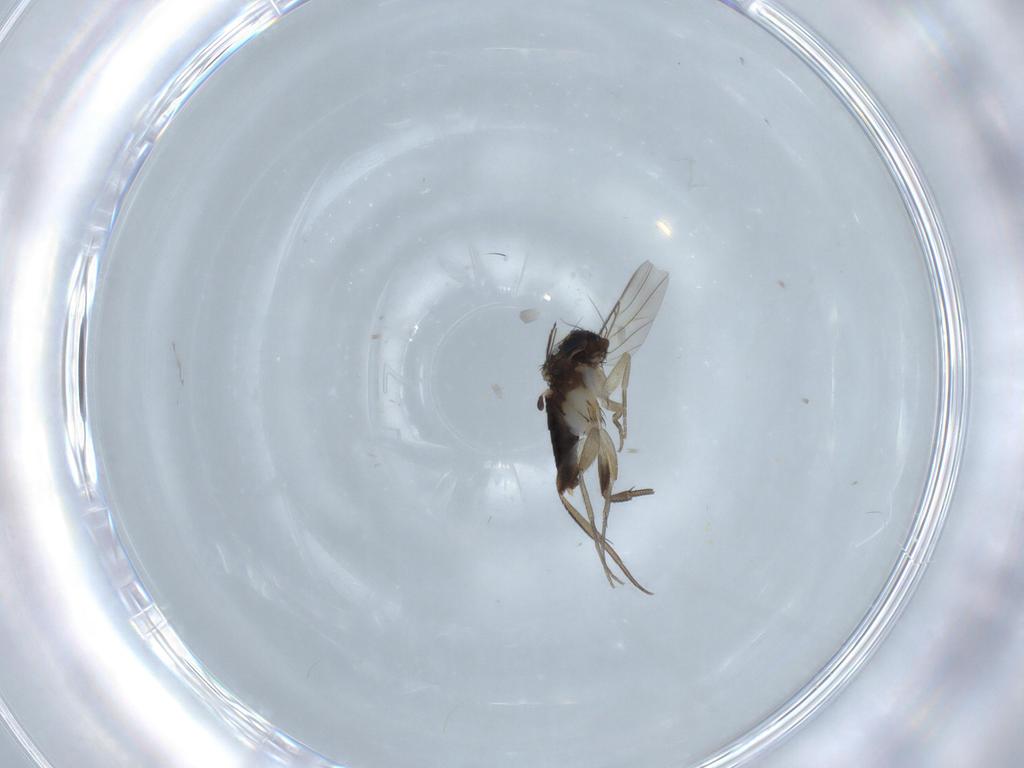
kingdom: Animalia
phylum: Arthropoda
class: Insecta
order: Diptera
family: Phoridae
